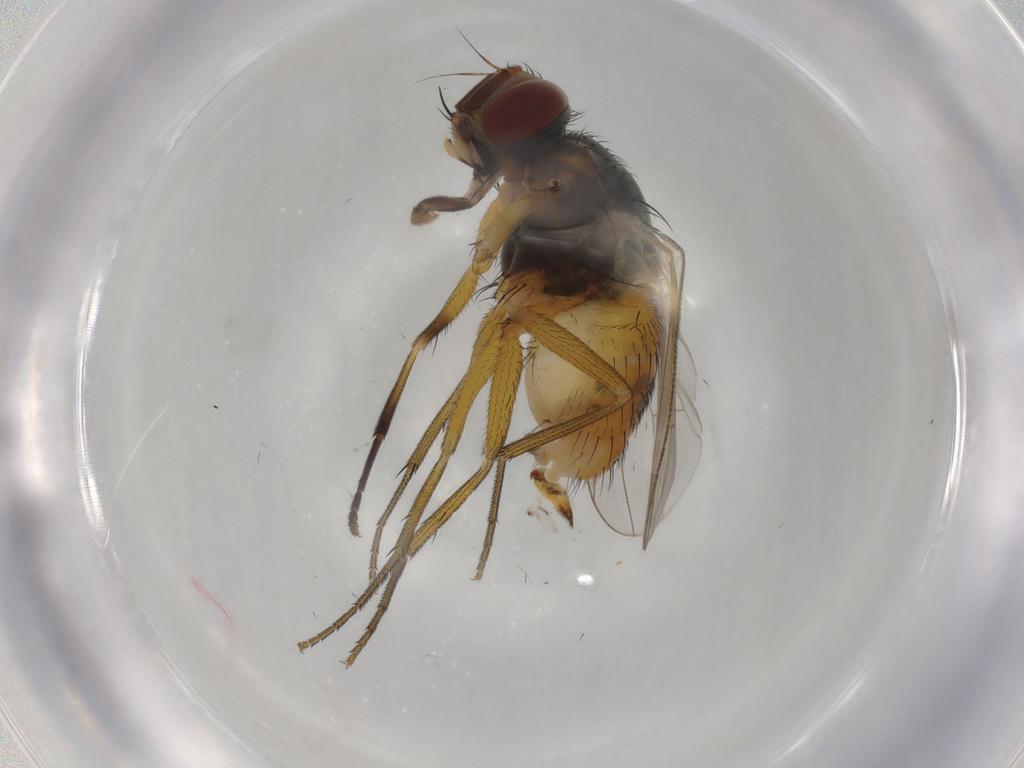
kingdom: Animalia
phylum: Arthropoda
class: Insecta
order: Diptera
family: Muscidae
